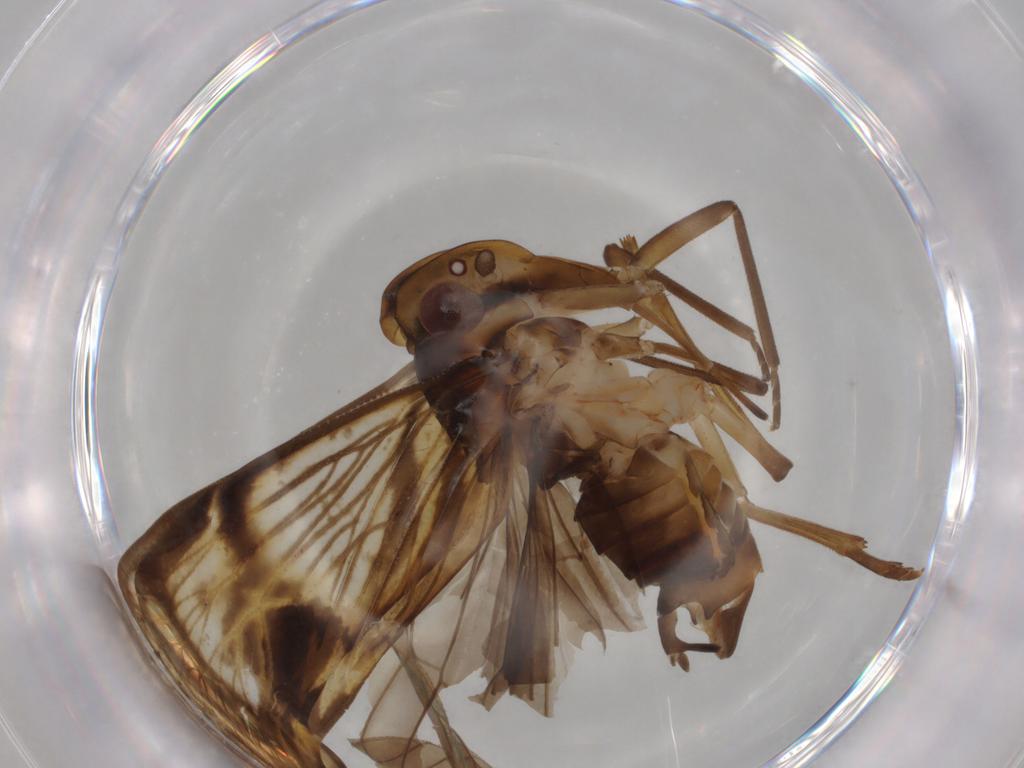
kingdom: Animalia
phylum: Arthropoda
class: Insecta
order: Hemiptera
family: Cixiidae
